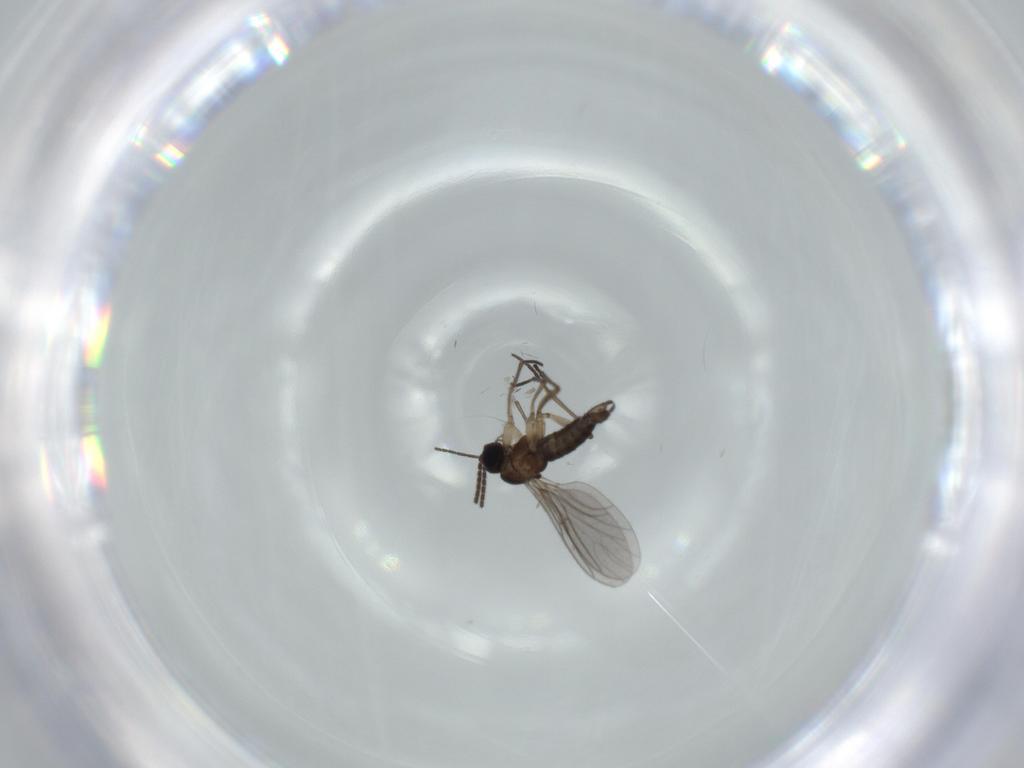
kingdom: Animalia
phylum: Arthropoda
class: Insecta
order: Diptera
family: Sciaridae
